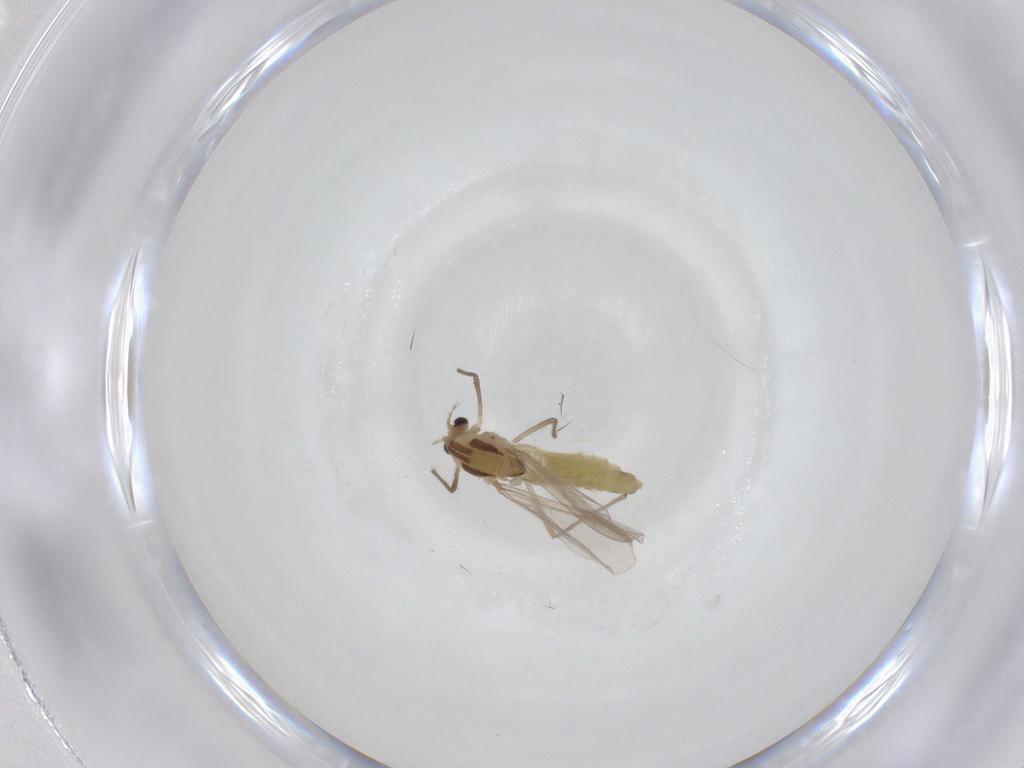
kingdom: Animalia
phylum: Arthropoda
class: Insecta
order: Diptera
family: Chironomidae
